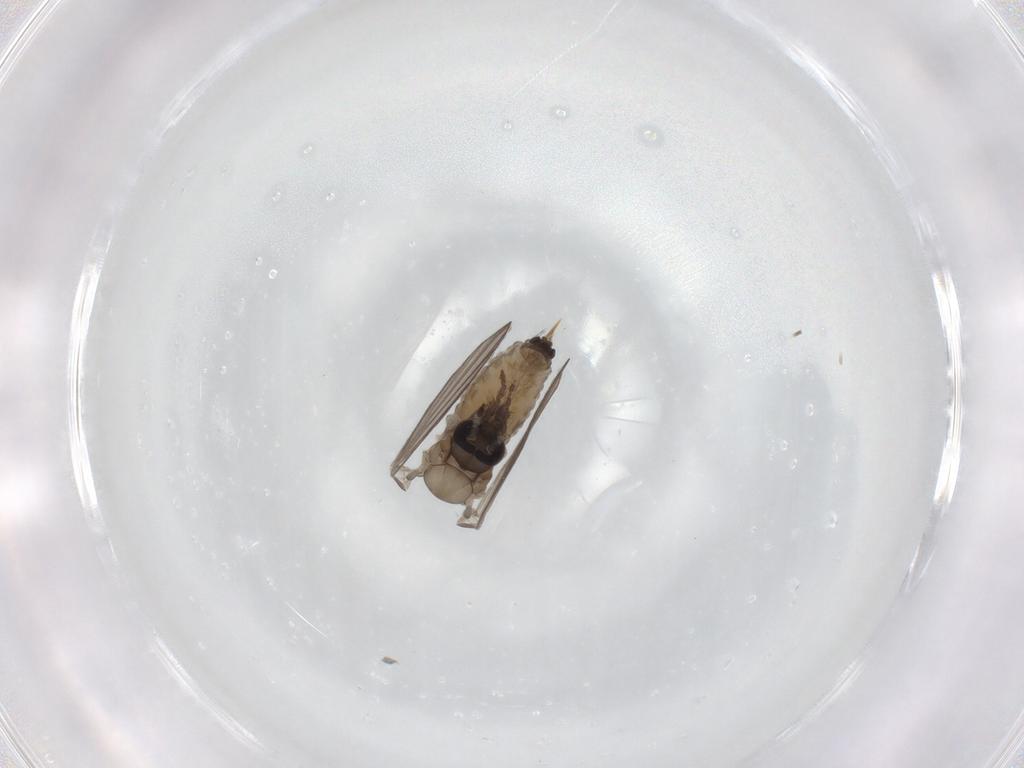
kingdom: Animalia
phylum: Arthropoda
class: Insecta
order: Diptera
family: Psychodidae
